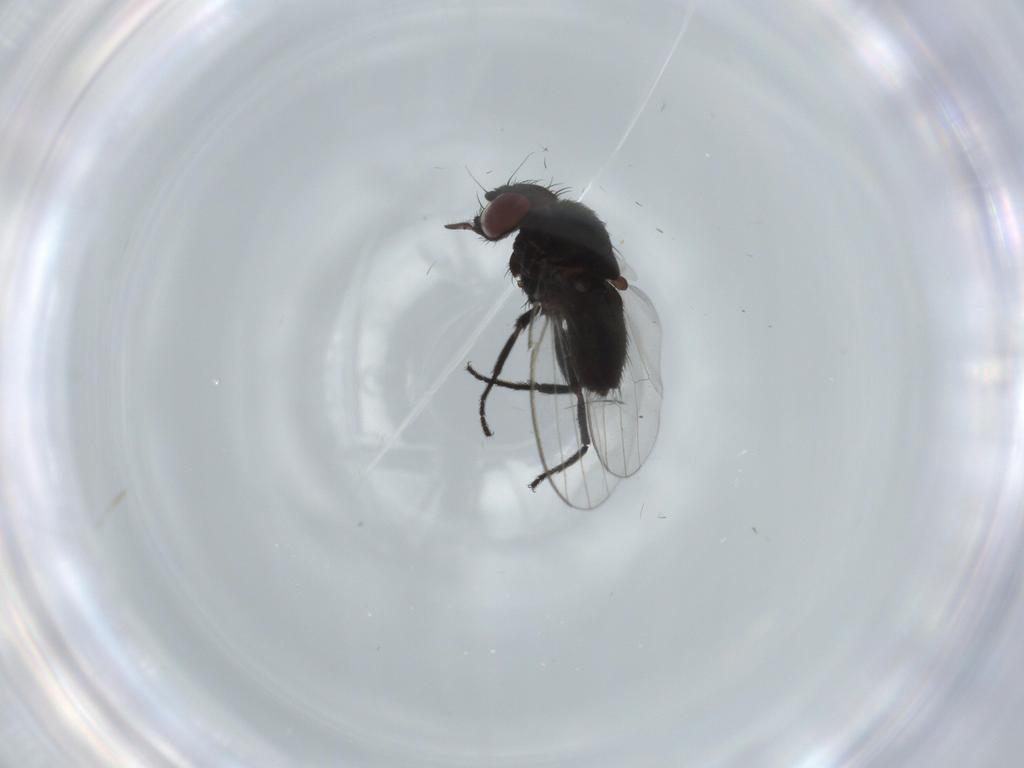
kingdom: Animalia
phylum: Arthropoda
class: Insecta
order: Diptera
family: Milichiidae
